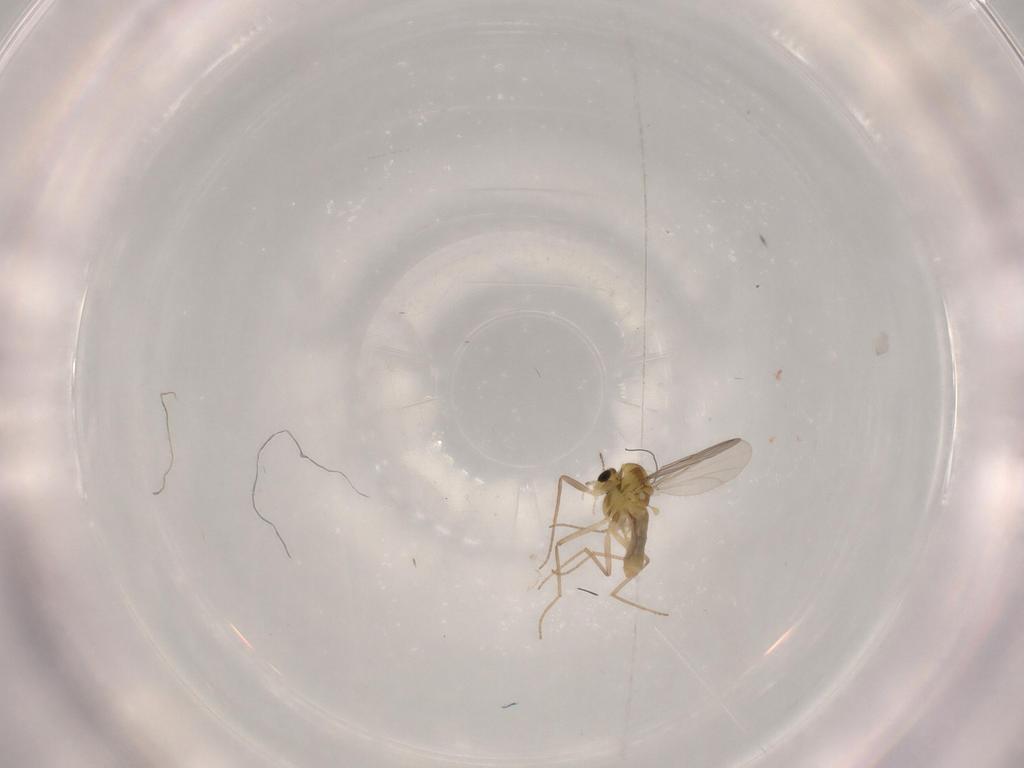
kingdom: Animalia
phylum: Arthropoda
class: Insecta
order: Diptera
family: Chironomidae
